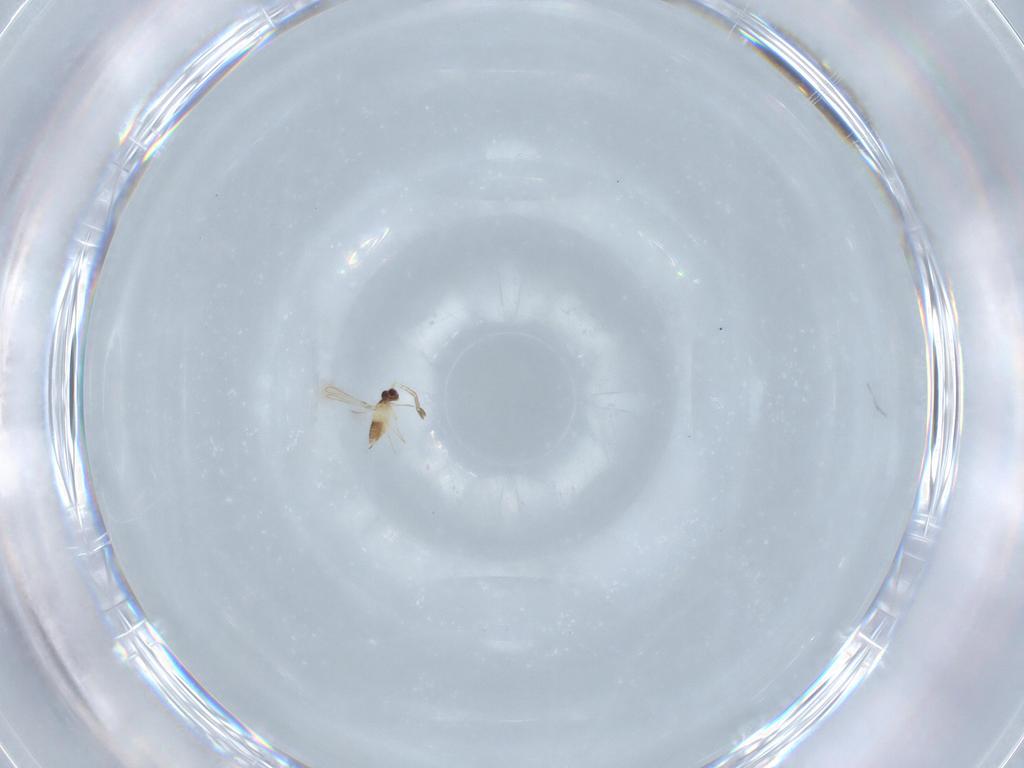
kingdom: Animalia
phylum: Arthropoda
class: Insecta
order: Hymenoptera
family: Mymaridae
